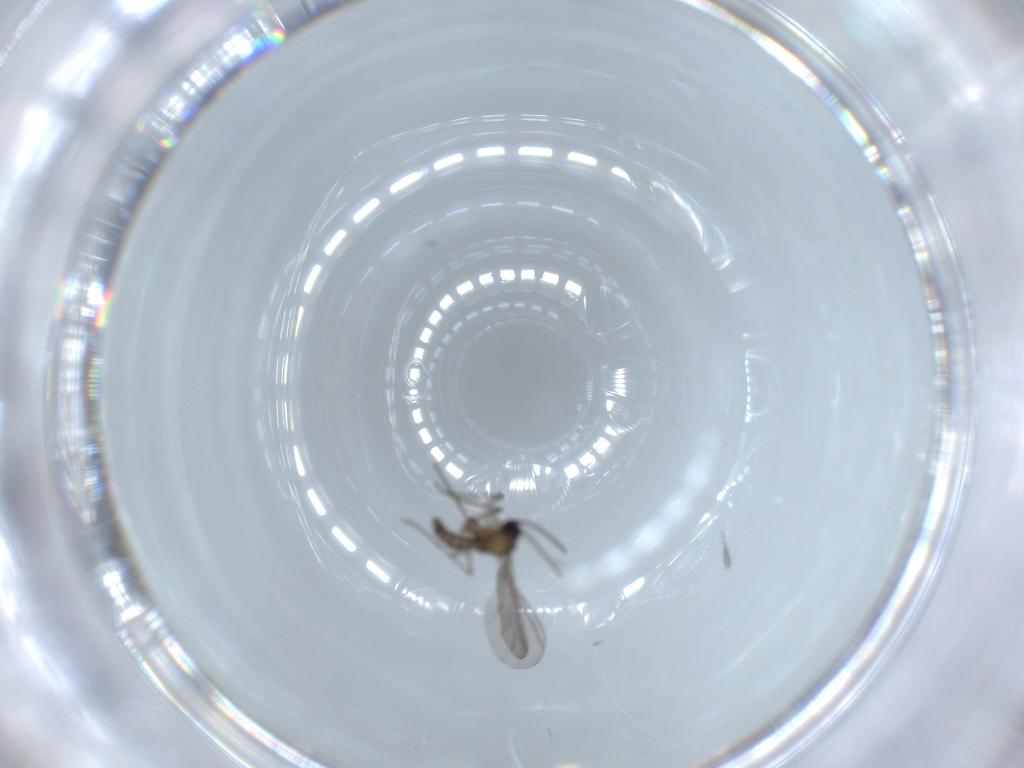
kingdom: Animalia
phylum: Arthropoda
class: Insecta
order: Diptera
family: Sciaridae
